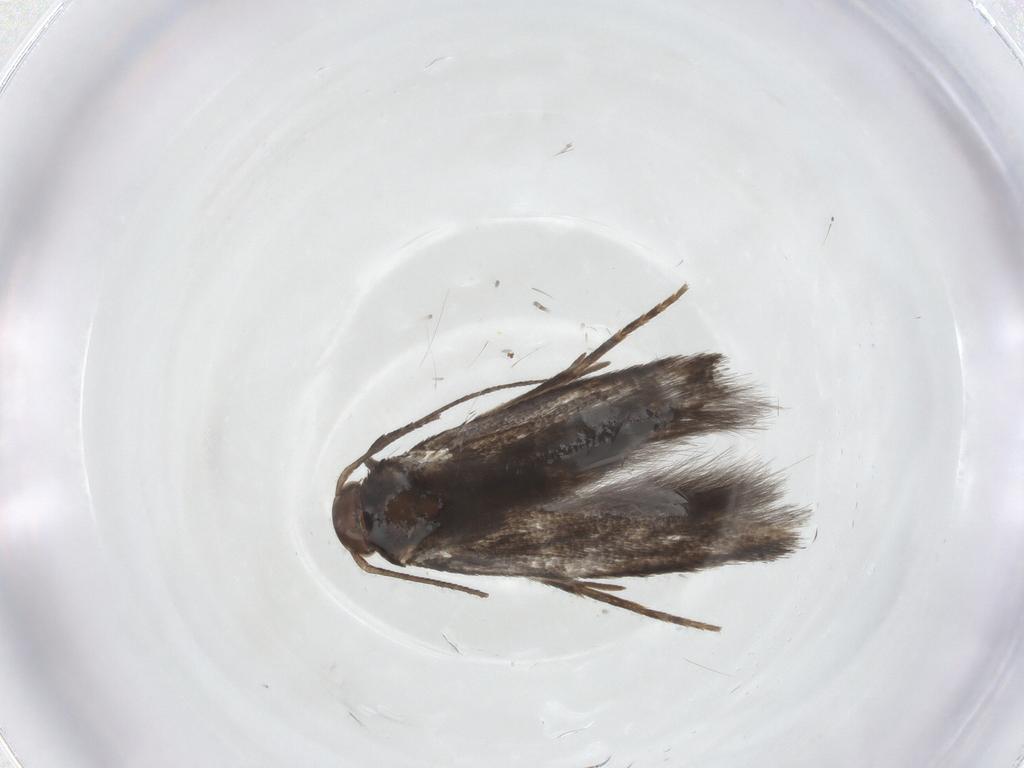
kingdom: Animalia
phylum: Arthropoda
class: Insecta
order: Lepidoptera
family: Elachistidae
